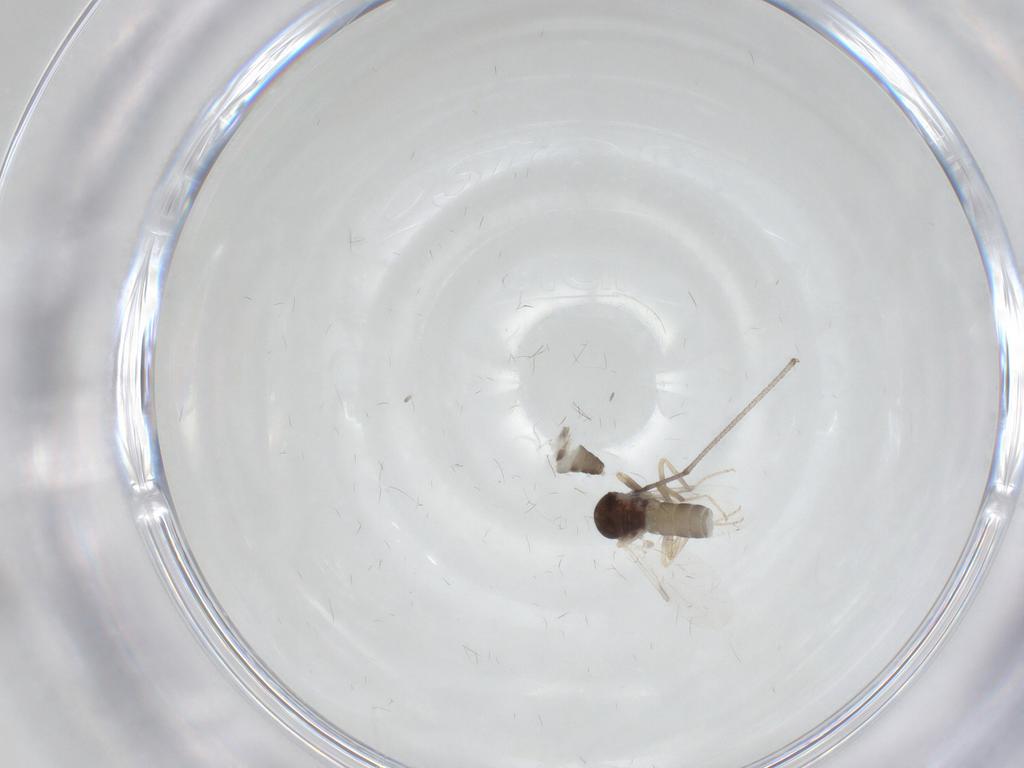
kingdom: Animalia
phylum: Arthropoda
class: Insecta
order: Diptera
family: Ceratopogonidae
